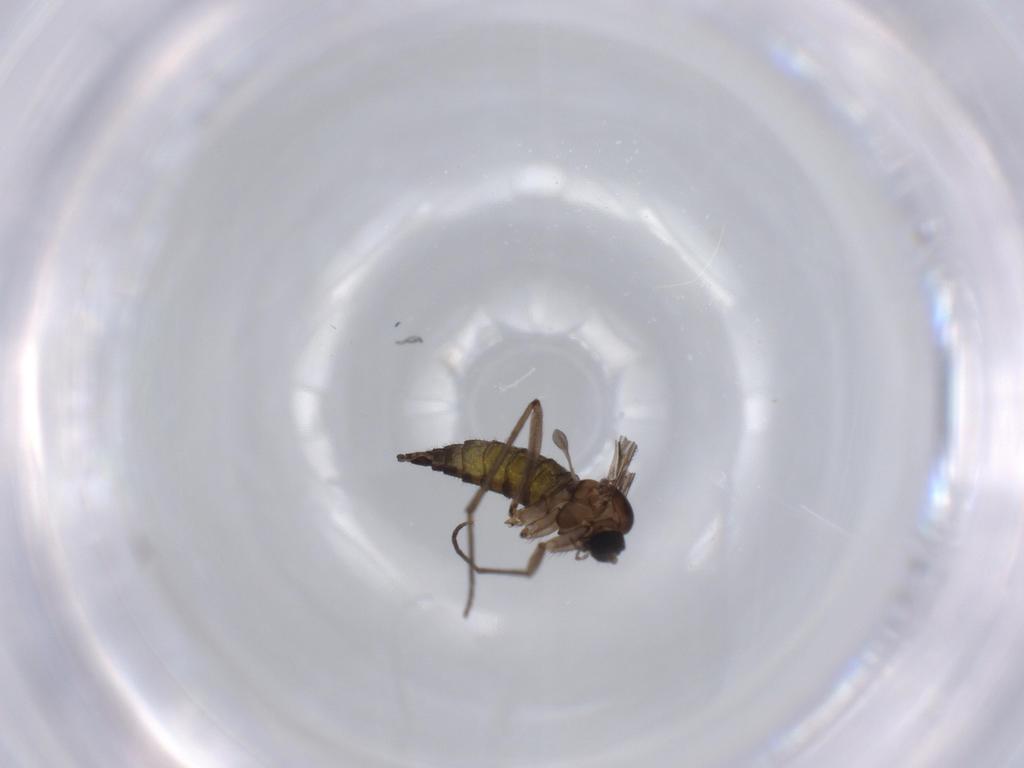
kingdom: Animalia
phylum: Arthropoda
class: Insecta
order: Diptera
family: Sciaridae
